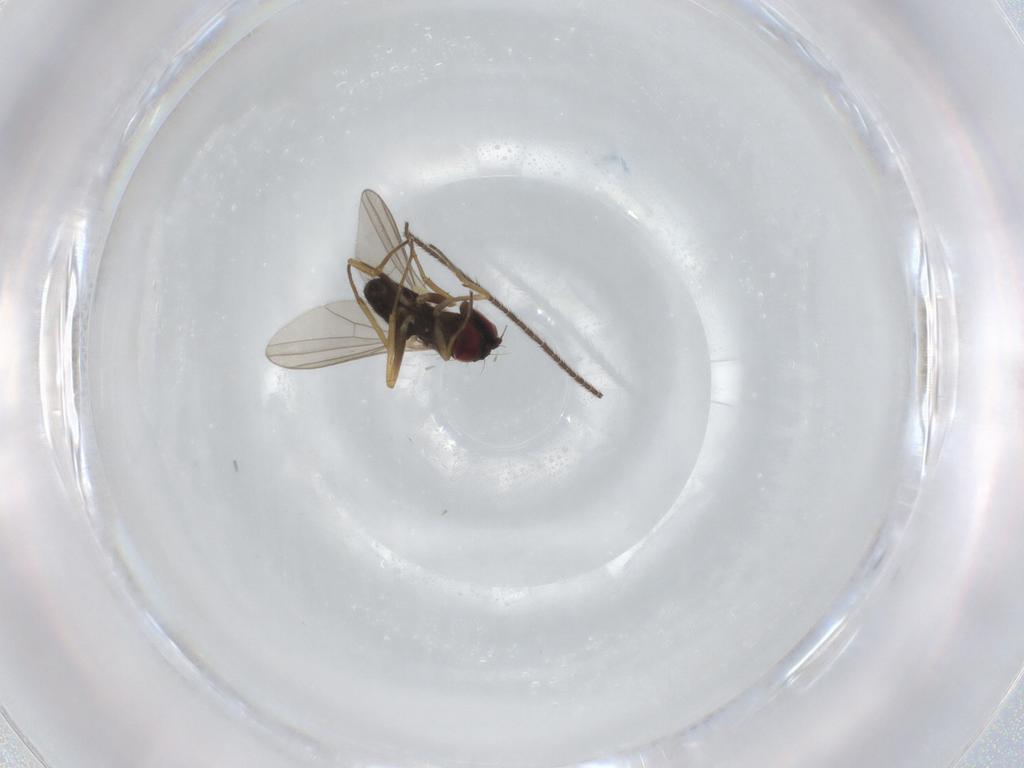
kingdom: Animalia
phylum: Arthropoda
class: Insecta
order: Diptera
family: Dolichopodidae
